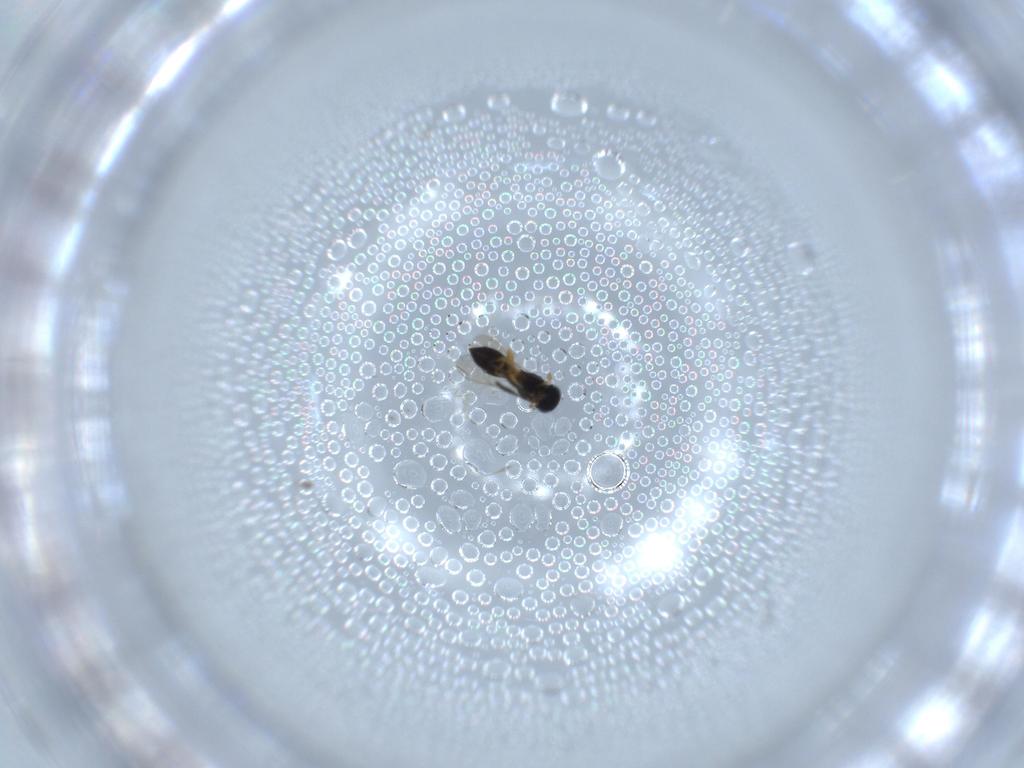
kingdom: Animalia
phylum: Arthropoda
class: Insecta
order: Hymenoptera
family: Scelionidae
